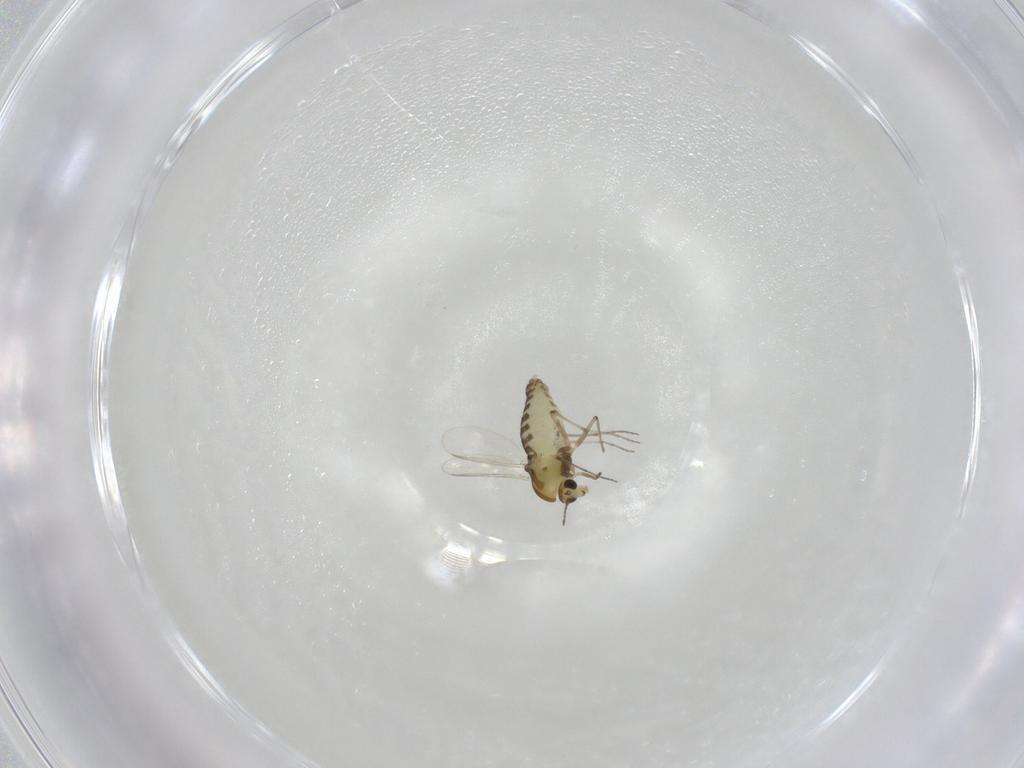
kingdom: Animalia
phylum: Arthropoda
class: Insecta
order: Diptera
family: Chironomidae
